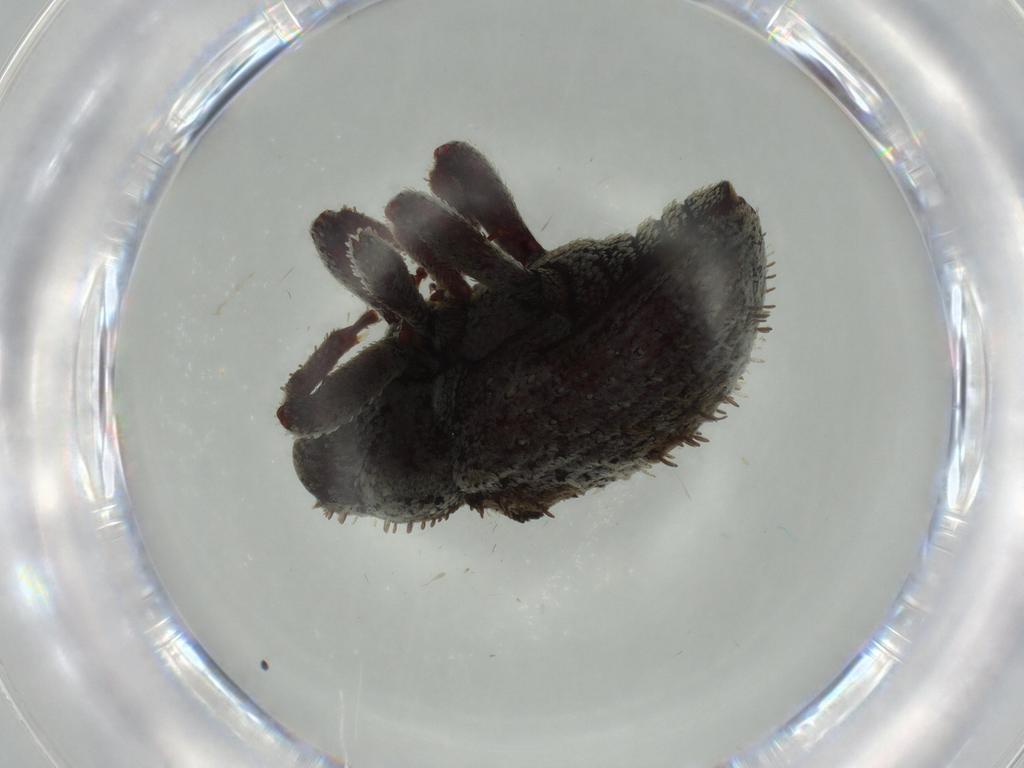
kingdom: Animalia
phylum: Arthropoda
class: Insecta
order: Coleoptera
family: Curculionidae
